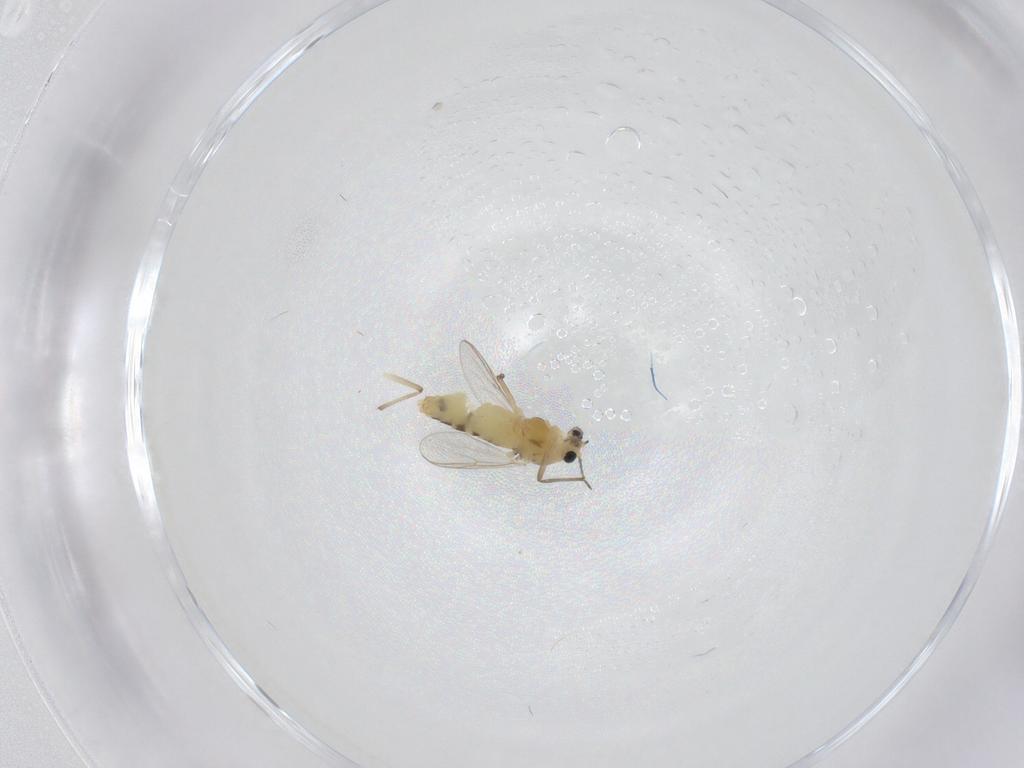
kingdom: Animalia
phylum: Arthropoda
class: Insecta
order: Diptera
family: Chironomidae
